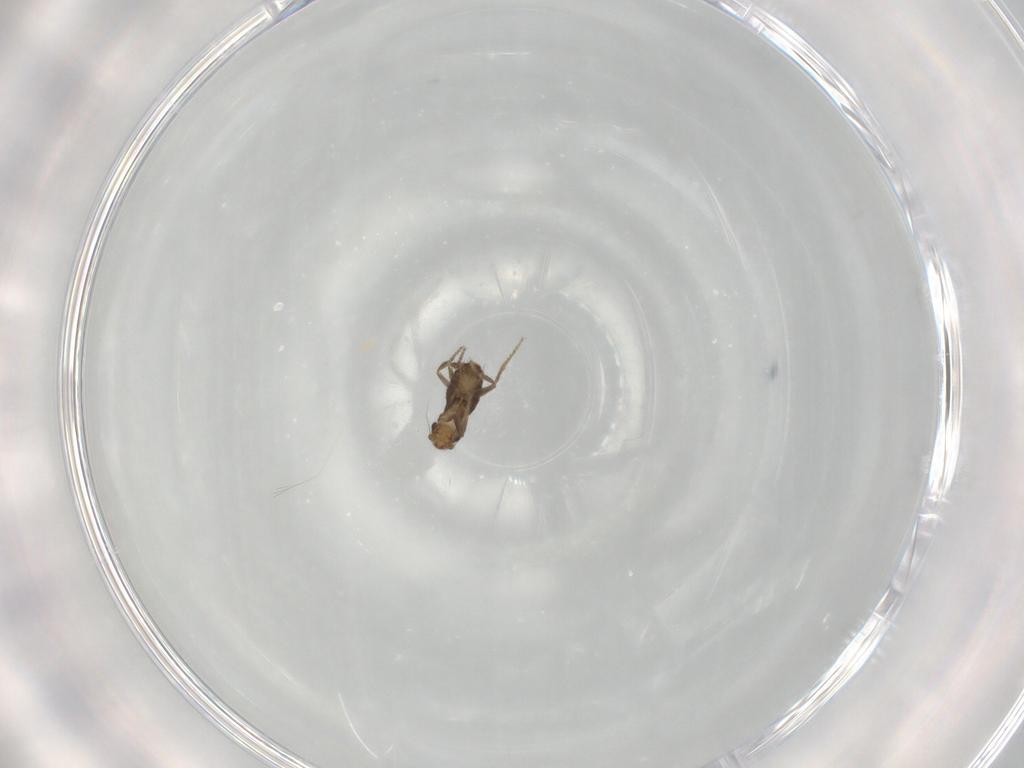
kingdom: Animalia
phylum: Arthropoda
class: Insecta
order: Diptera
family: Phoridae
